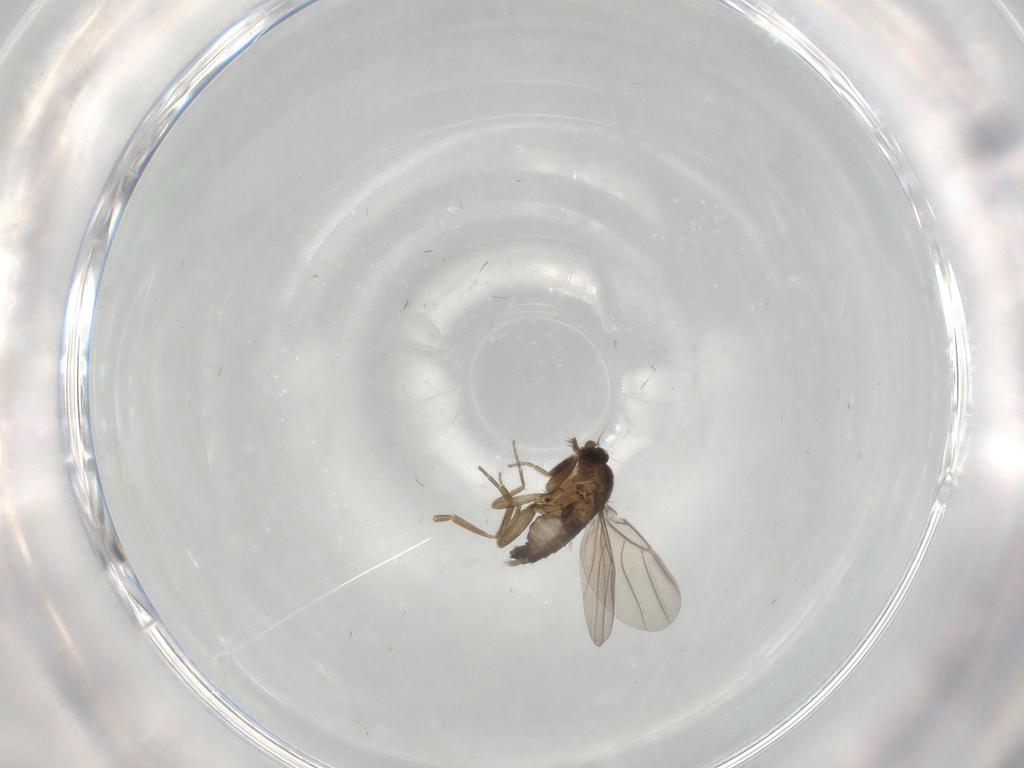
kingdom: Animalia
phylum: Arthropoda
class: Insecta
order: Diptera
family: Phoridae
